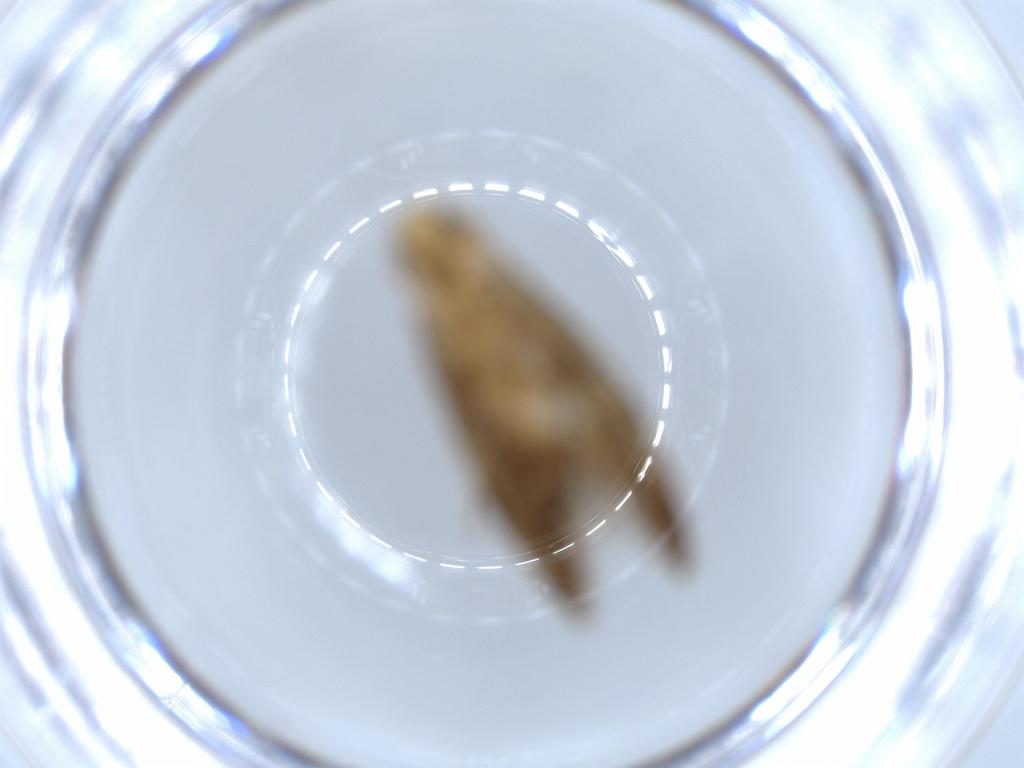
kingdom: Animalia
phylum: Arthropoda
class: Insecta
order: Lepidoptera
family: Tineidae
